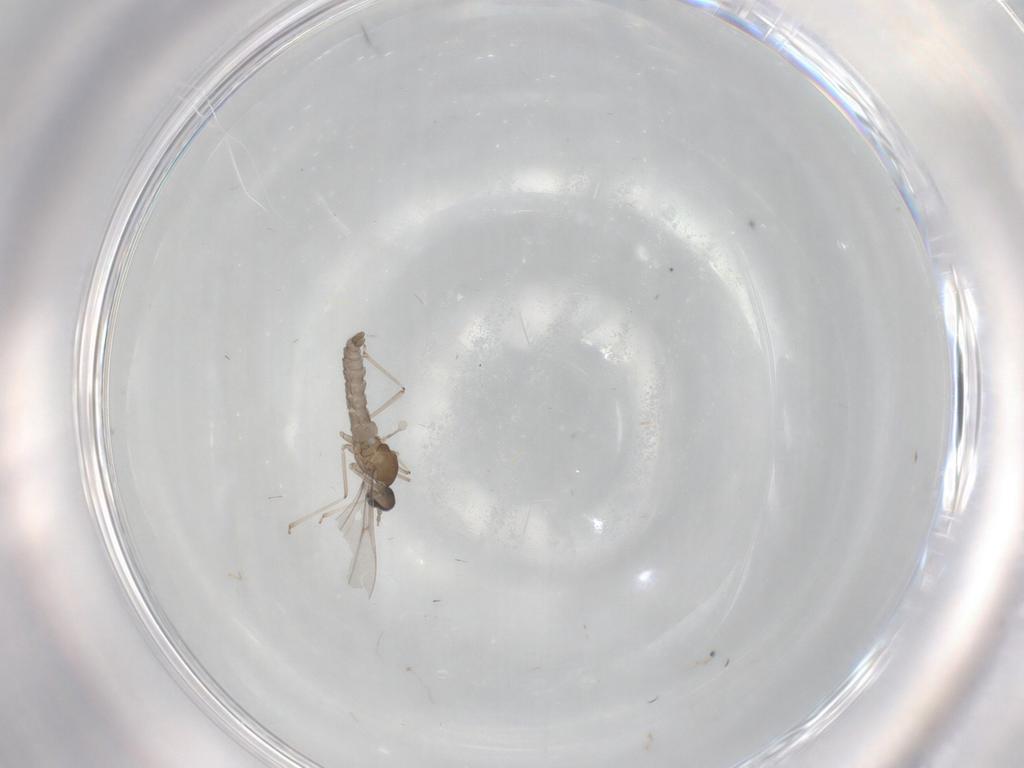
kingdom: Animalia
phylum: Arthropoda
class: Insecta
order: Diptera
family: Cecidomyiidae
